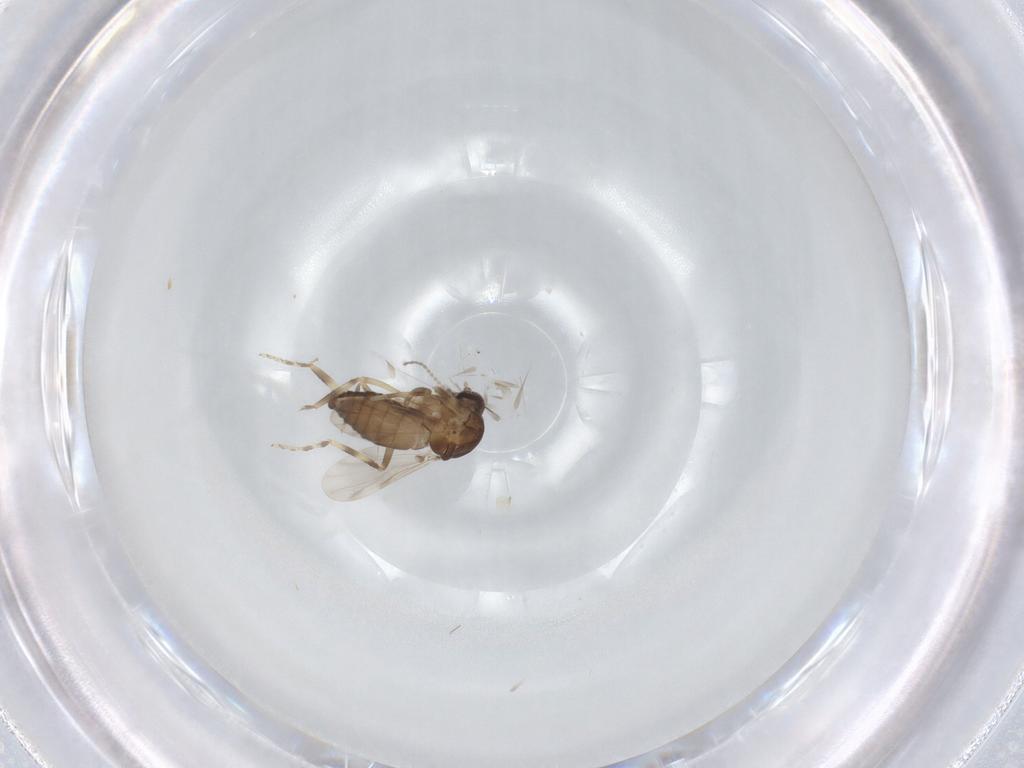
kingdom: Animalia
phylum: Arthropoda
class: Insecta
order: Diptera
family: Ceratopogonidae
